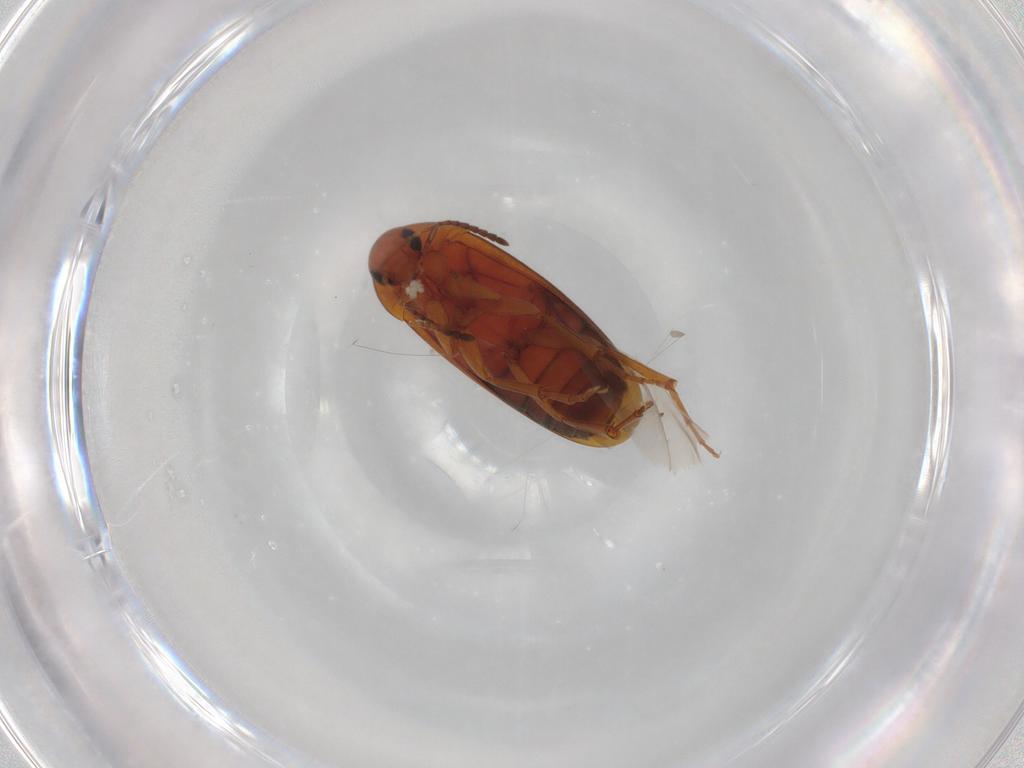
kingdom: Animalia
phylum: Arthropoda
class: Insecta
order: Coleoptera
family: Scraptiidae
